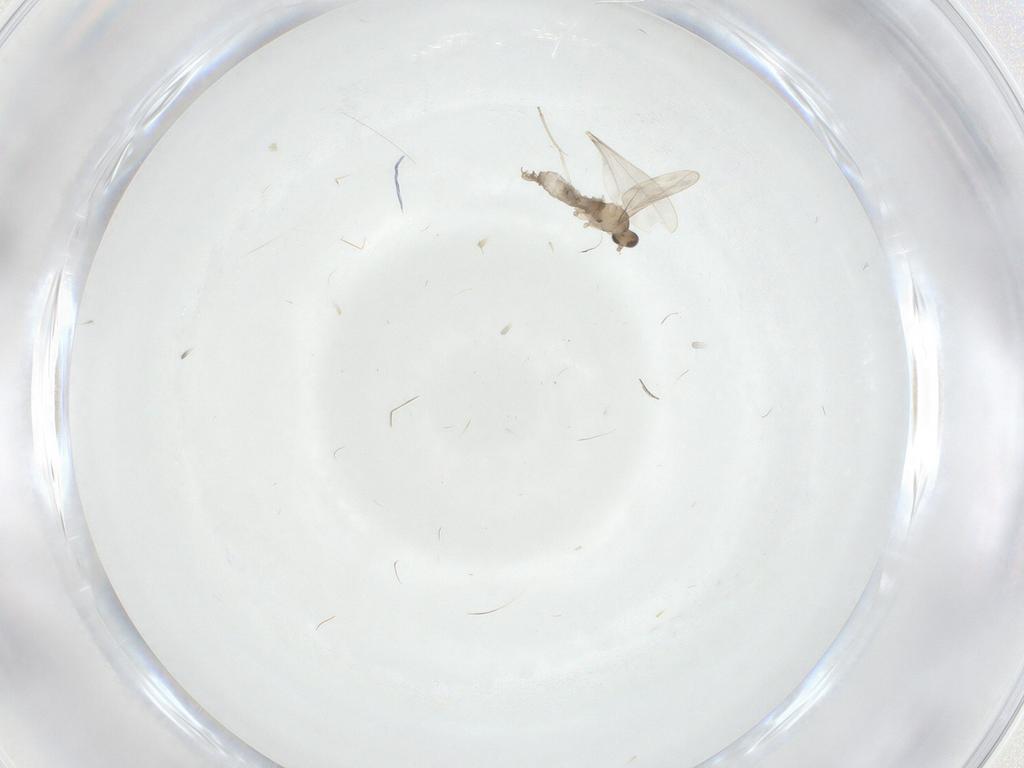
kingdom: Animalia
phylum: Arthropoda
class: Insecta
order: Diptera
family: Cecidomyiidae
